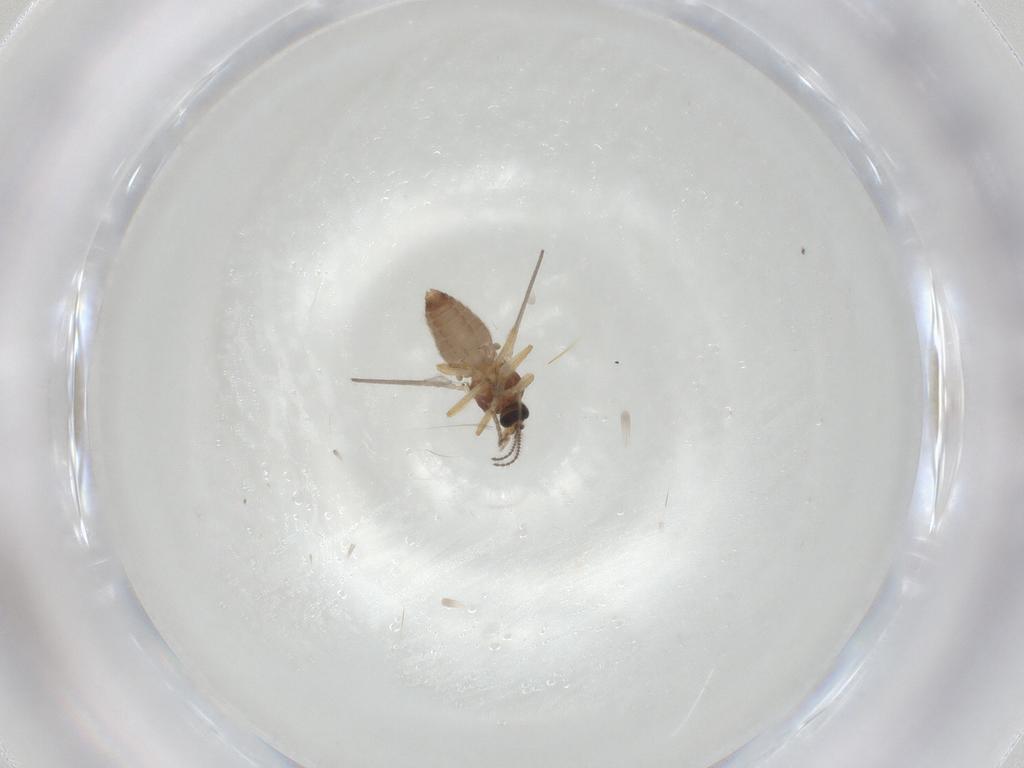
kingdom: Animalia
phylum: Arthropoda
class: Insecta
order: Diptera
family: Ceratopogonidae
